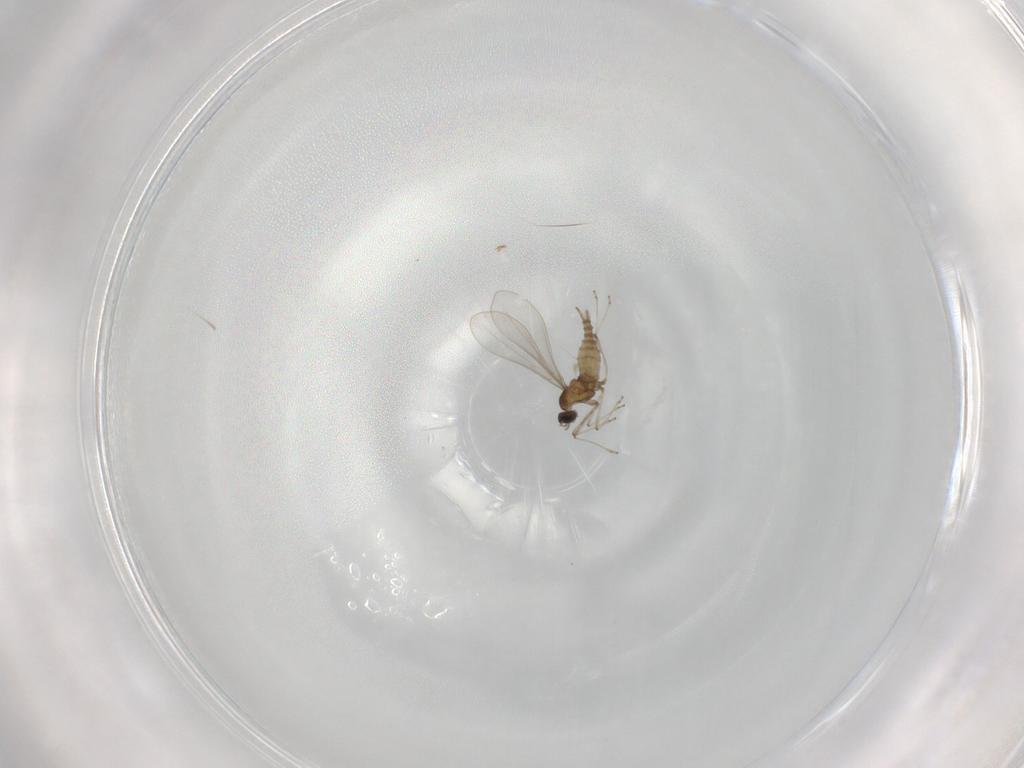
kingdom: Animalia
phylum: Arthropoda
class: Insecta
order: Diptera
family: Cecidomyiidae
